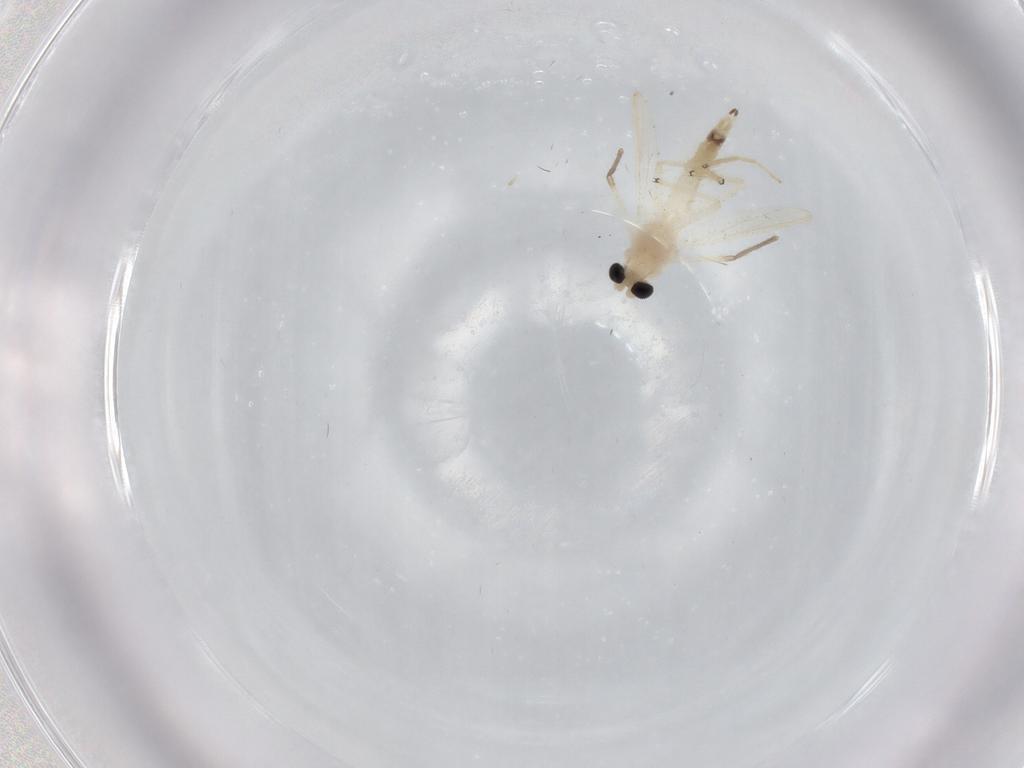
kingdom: Animalia
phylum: Arthropoda
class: Insecta
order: Diptera
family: Chironomidae
